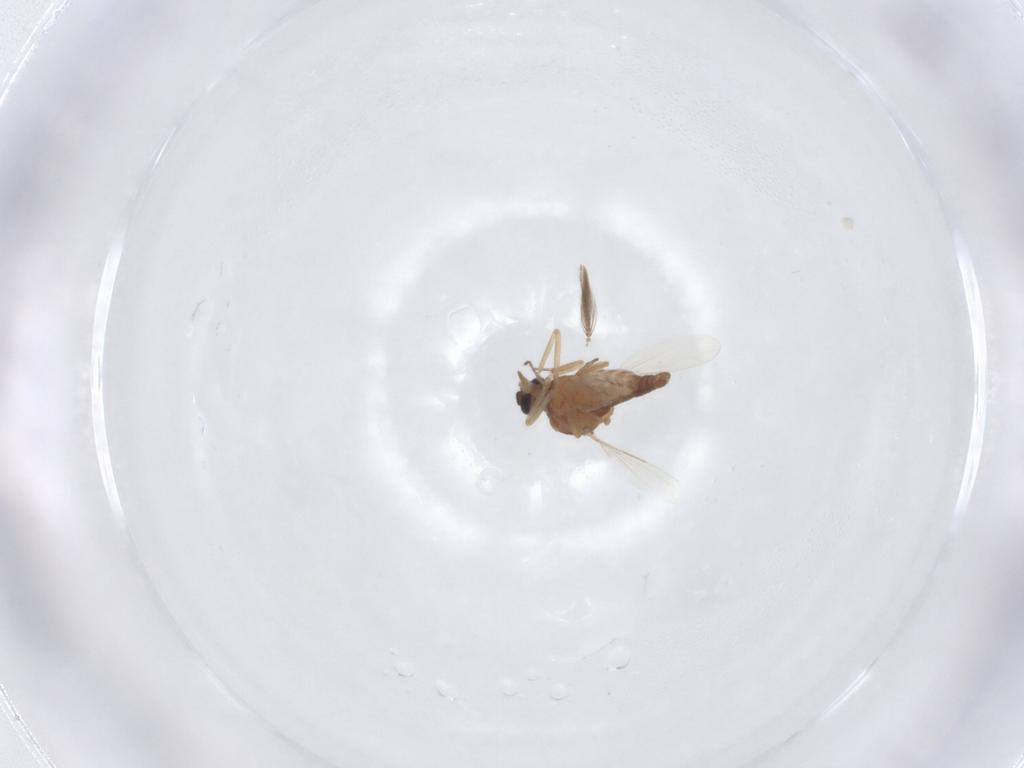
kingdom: Animalia
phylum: Arthropoda
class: Insecta
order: Diptera
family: Ceratopogonidae
